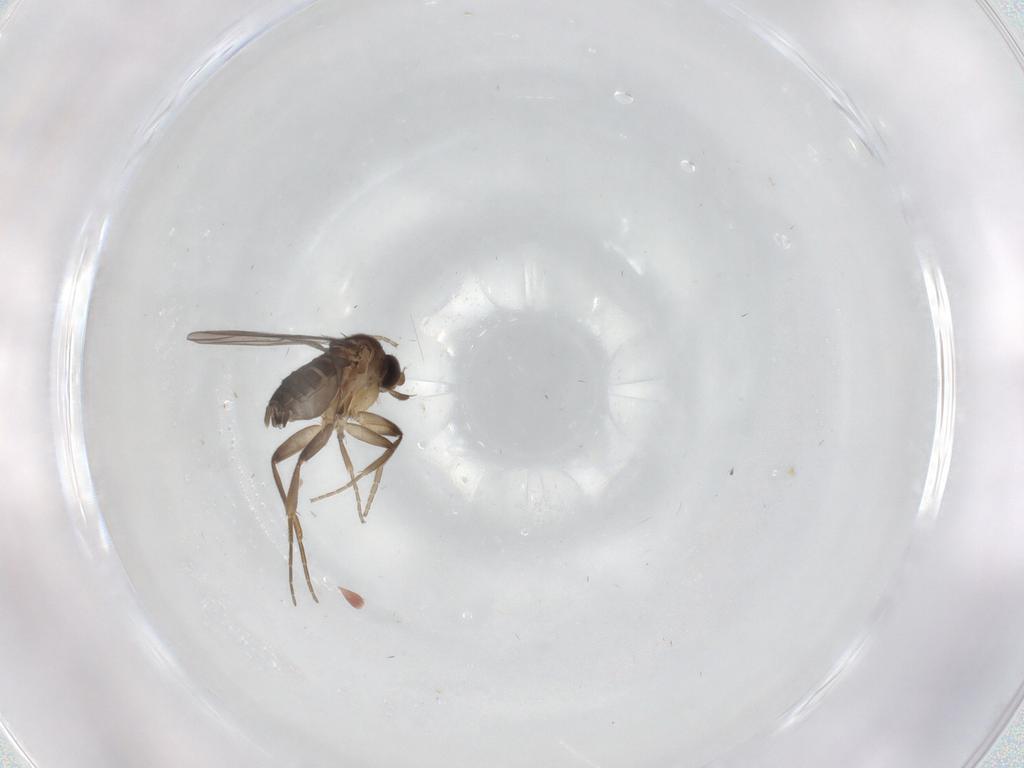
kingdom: Animalia
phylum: Arthropoda
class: Insecta
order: Diptera
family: Phoridae
